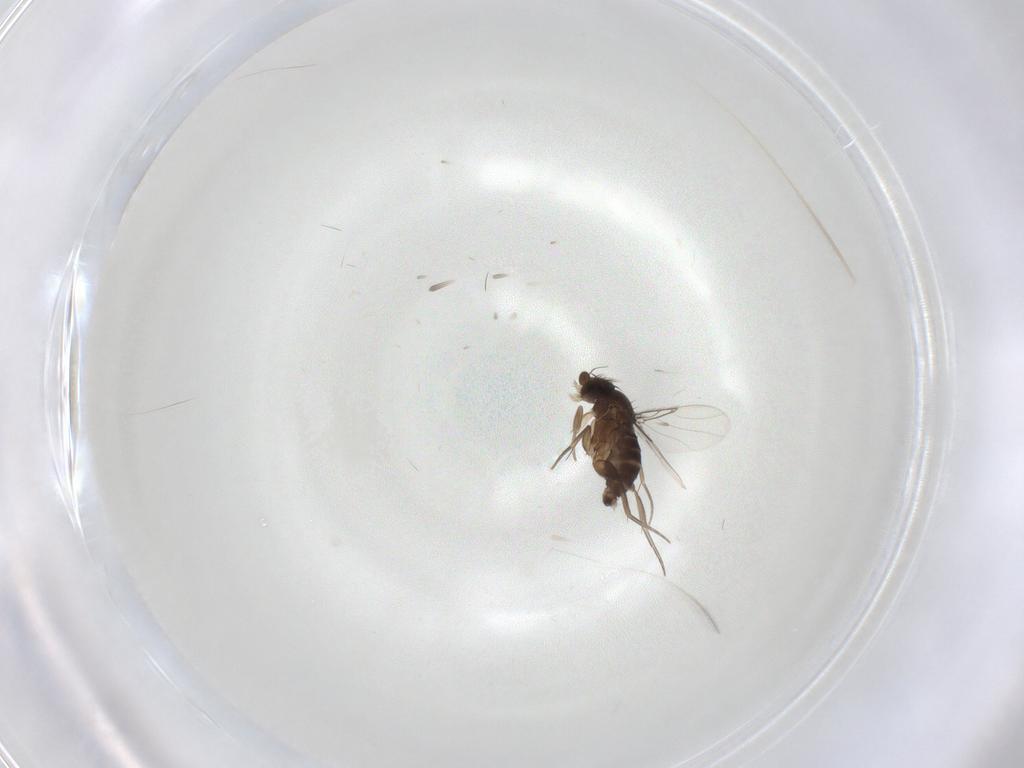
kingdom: Animalia
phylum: Arthropoda
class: Insecta
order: Diptera
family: Phoridae
